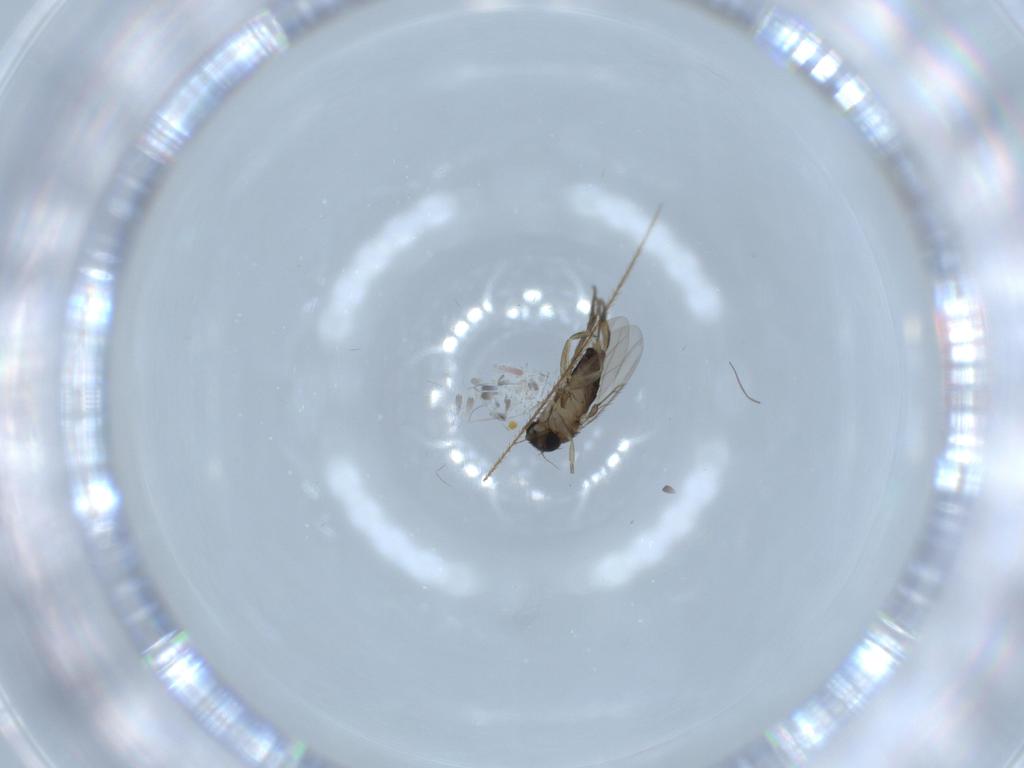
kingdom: Animalia
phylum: Arthropoda
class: Insecta
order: Diptera
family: Phoridae
